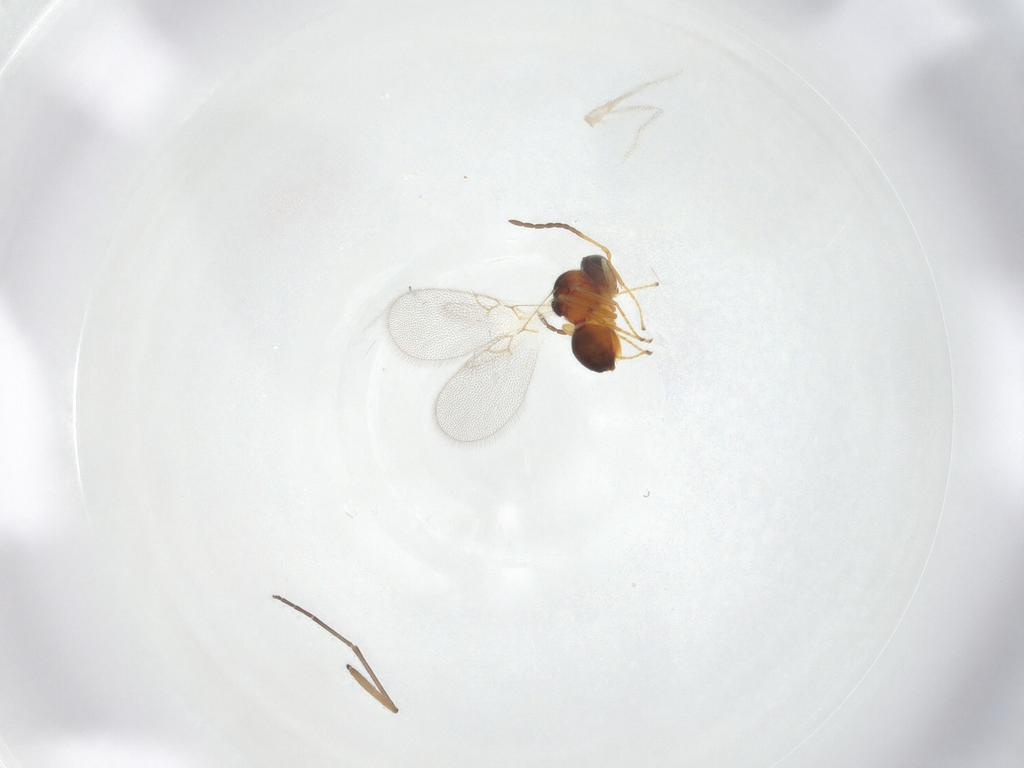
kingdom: Animalia
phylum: Arthropoda
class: Insecta
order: Hymenoptera
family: Figitidae
